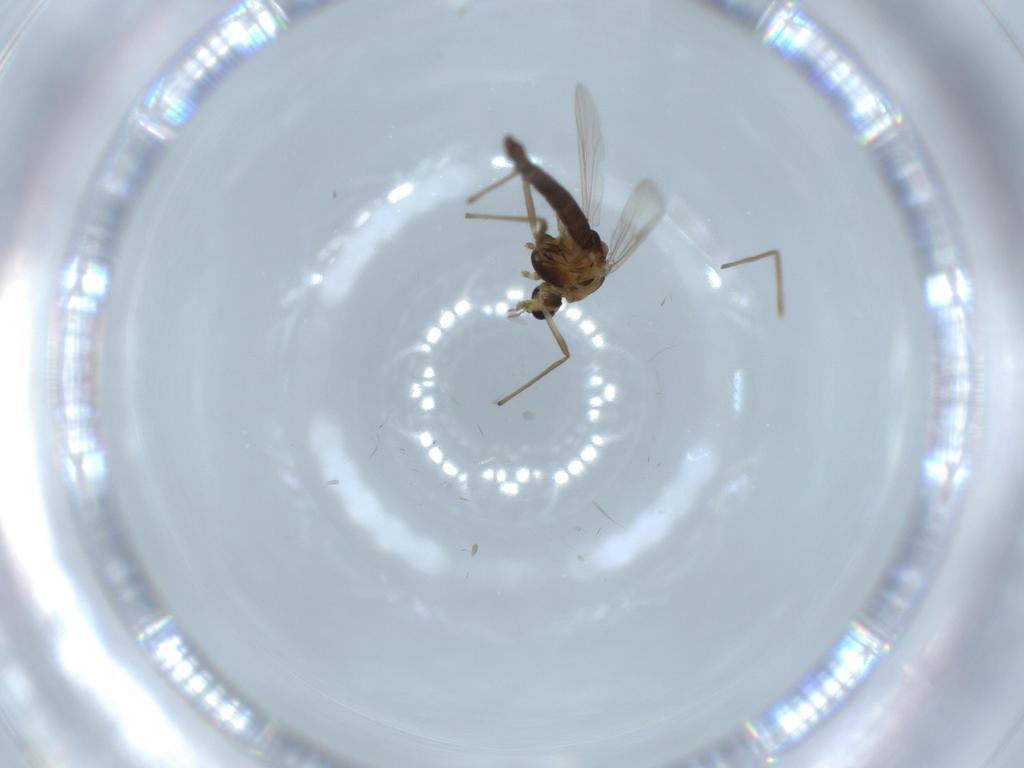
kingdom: Animalia
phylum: Arthropoda
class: Insecta
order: Diptera
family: Chironomidae
